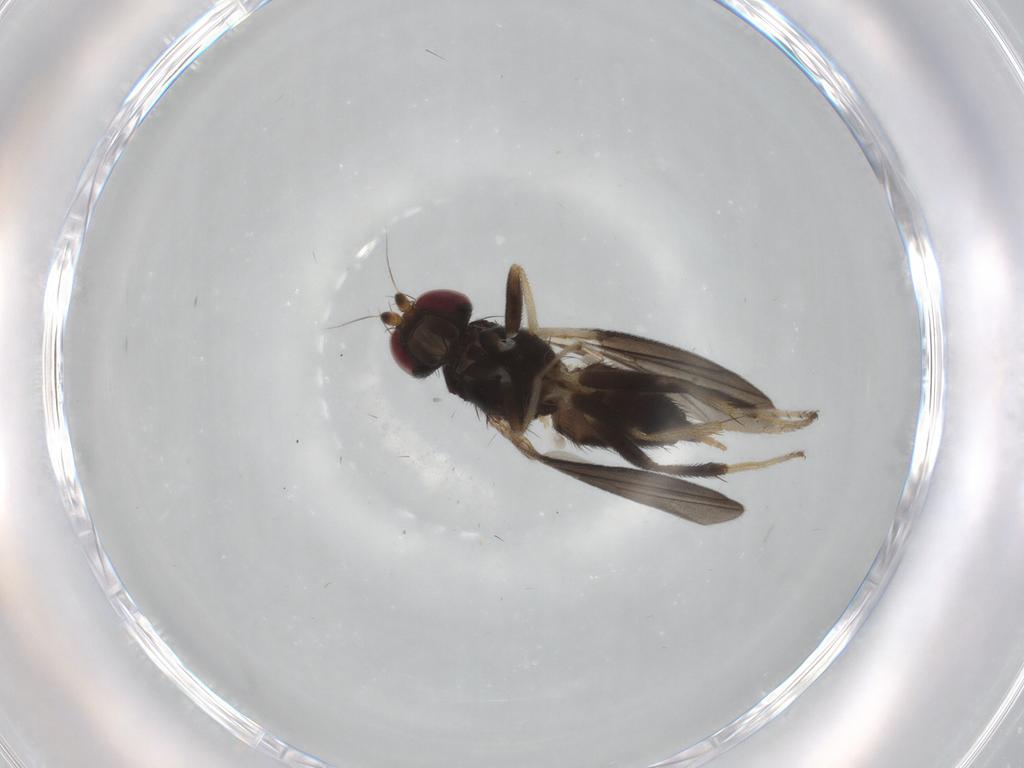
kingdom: Animalia
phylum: Arthropoda
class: Insecta
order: Diptera
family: Clusiidae
